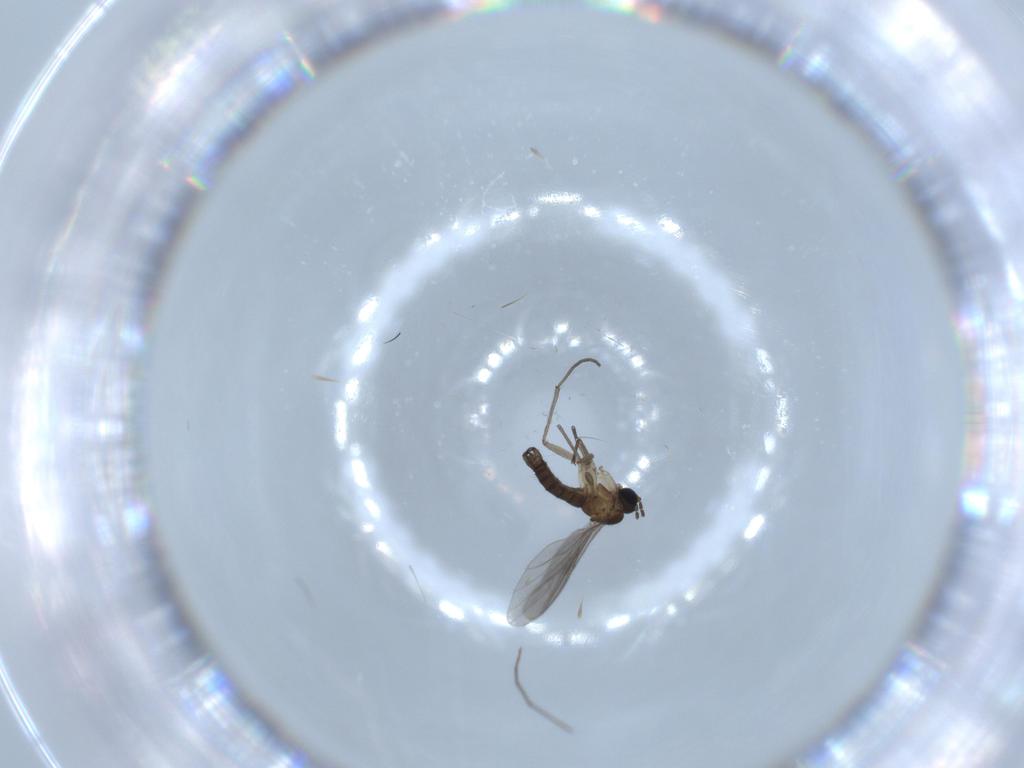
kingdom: Animalia
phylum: Arthropoda
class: Insecta
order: Diptera
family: Sciaridae
